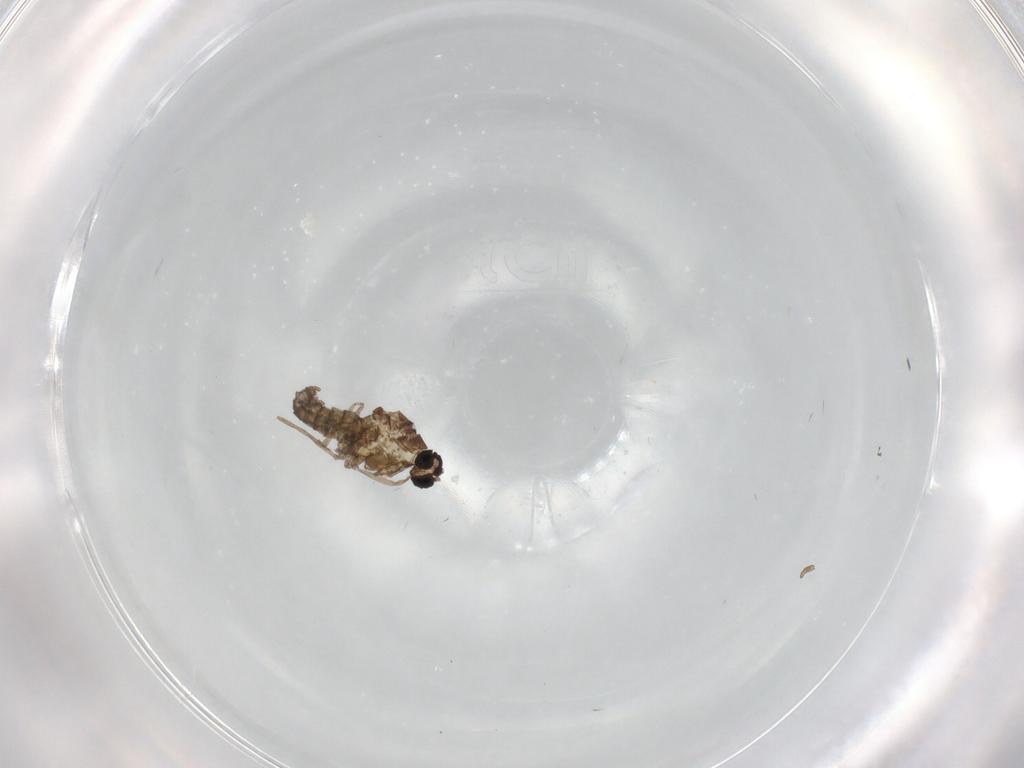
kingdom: Animalia
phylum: Arthropoda
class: Insecta
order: Diptera
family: Cecidomyiidae
